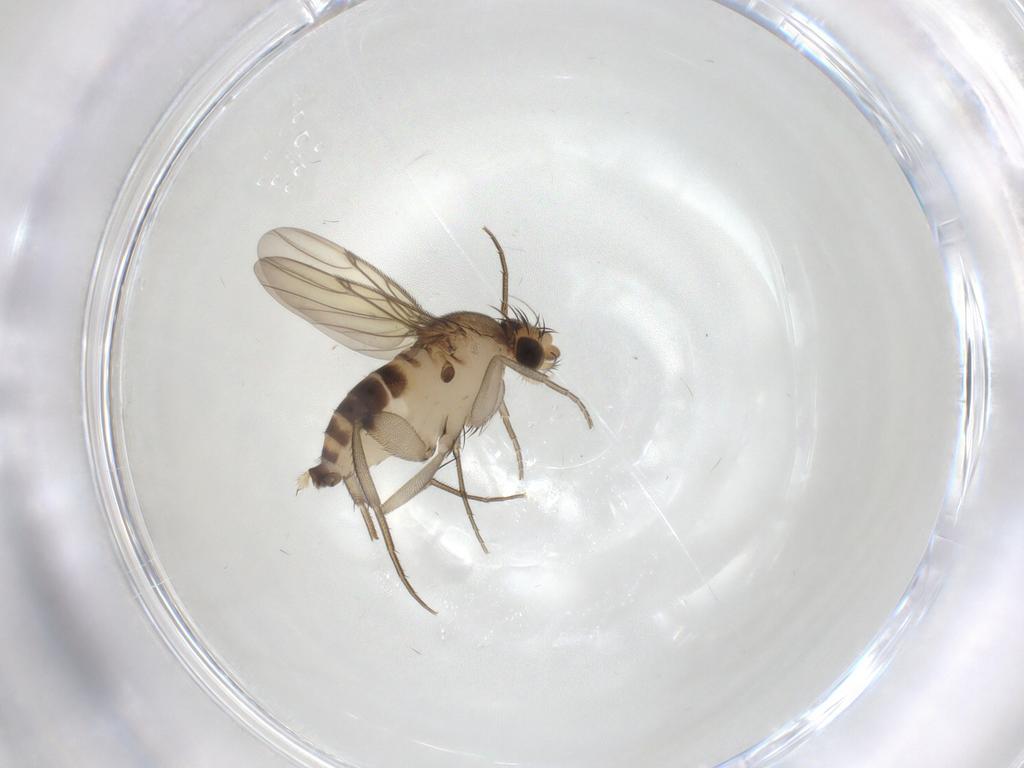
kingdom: Animalia
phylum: Arthropoda
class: Insecta
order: Diptera
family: Phoridae
